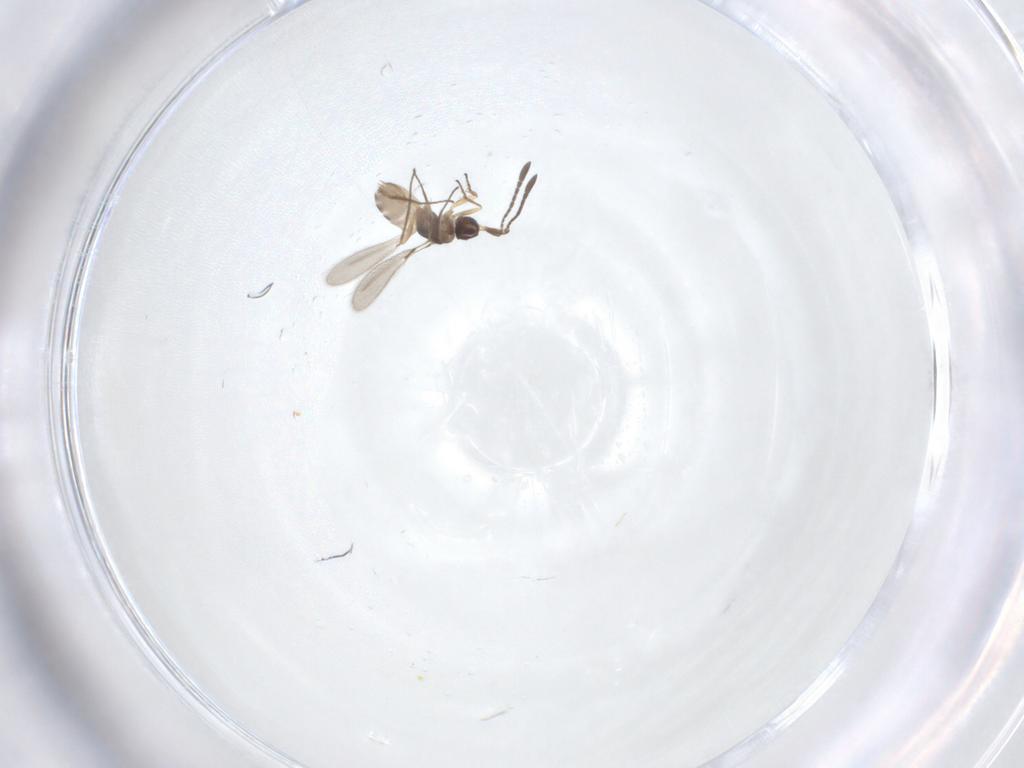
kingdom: Animalia
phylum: Arthropoda
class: Insecta
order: Hymenoptera
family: Mymaridae
